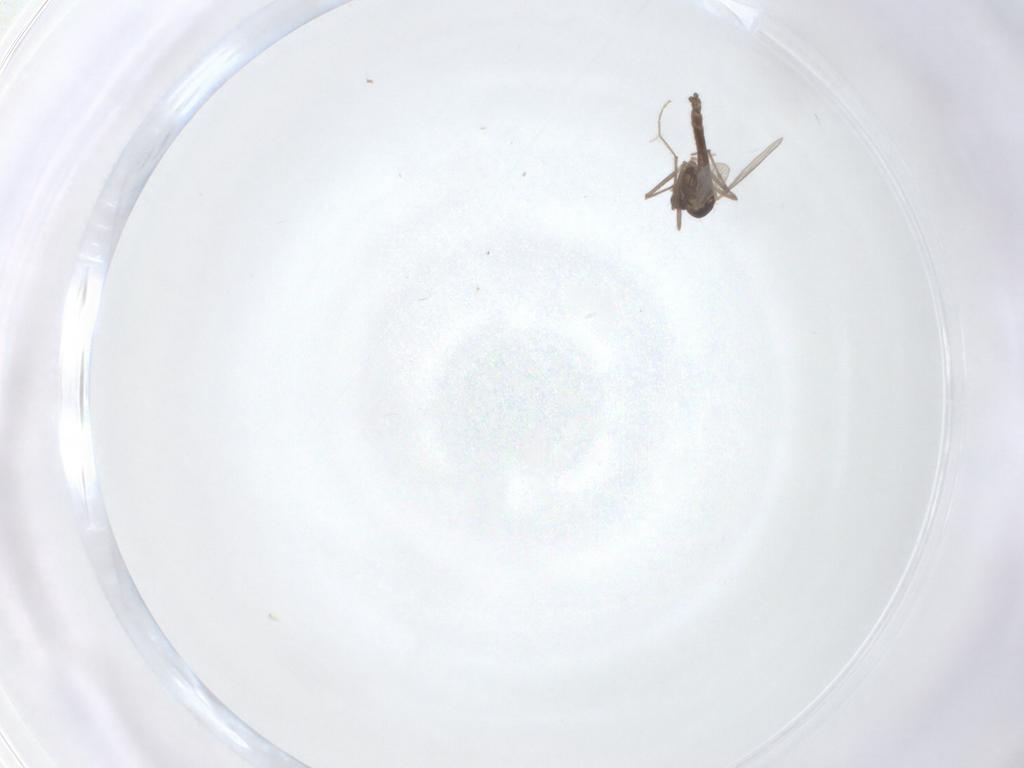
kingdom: Animalia
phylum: Arthropoda
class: Insecta
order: Diptera
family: Chironomidae
